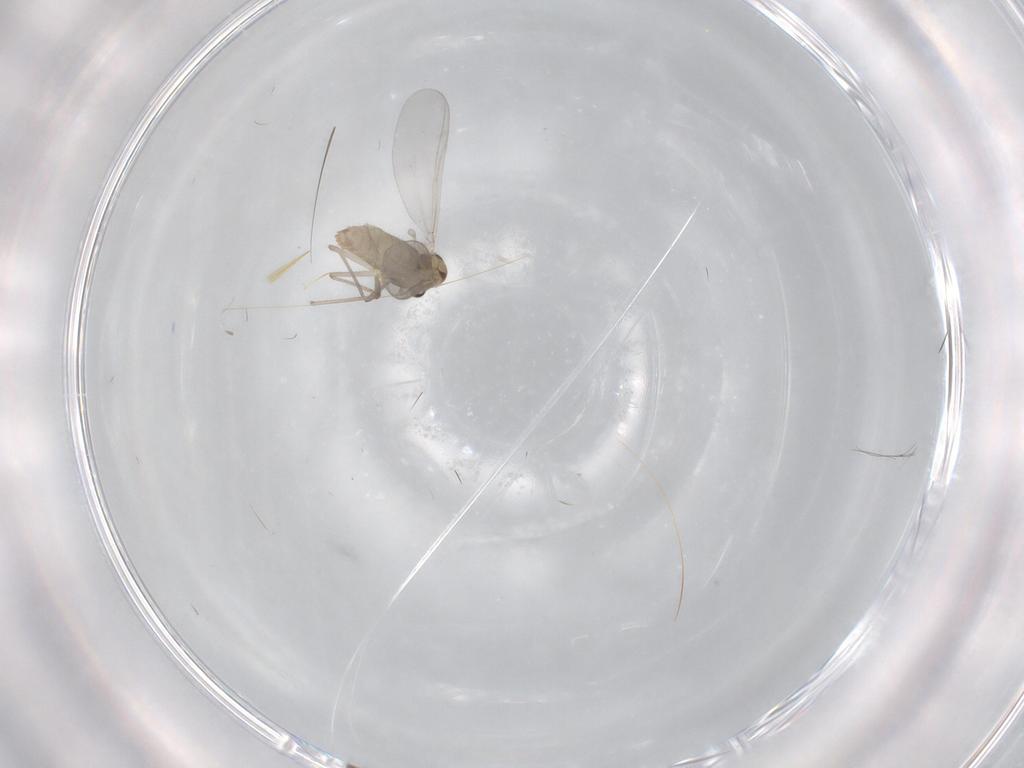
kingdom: Animalia
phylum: Arthropoda
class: Insecta
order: Diptera
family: Chironomidae
